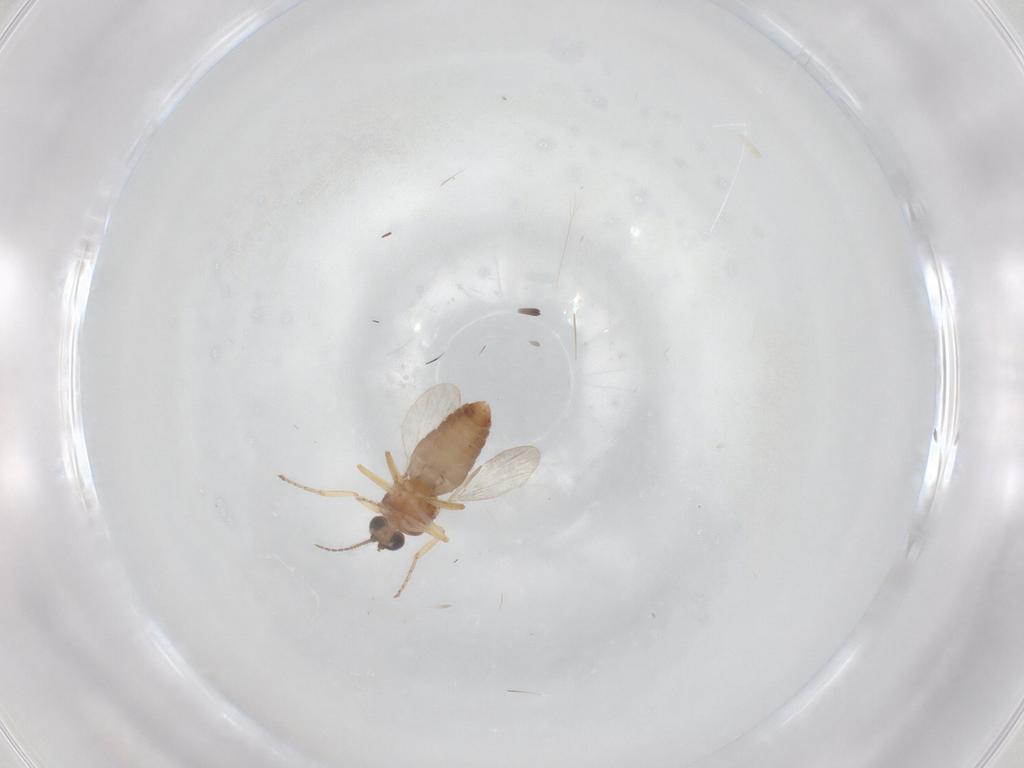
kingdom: Animalia
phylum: Arthropoda
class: Insecta
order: Diptera
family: Ceratopogonidae
